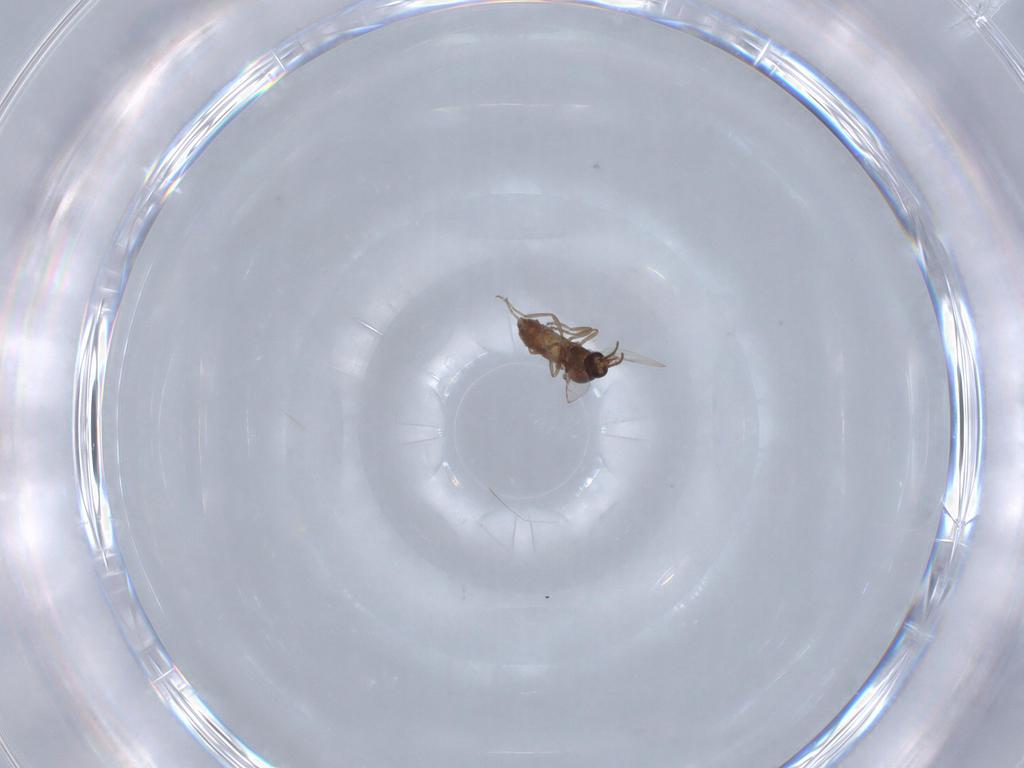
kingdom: Animalia
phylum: Arthropoda
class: Insecta
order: Diptera
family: Ceratopogonidae
